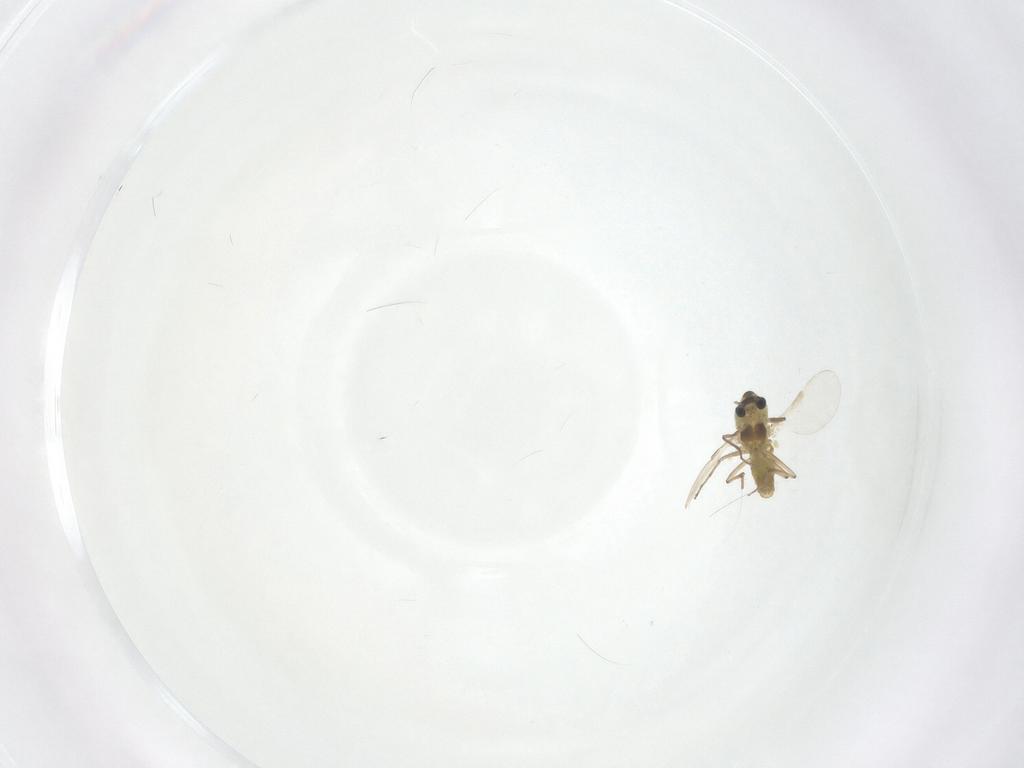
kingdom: Animalia
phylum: Arthropoda
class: Insecta
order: Diptera
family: Chironomidae
